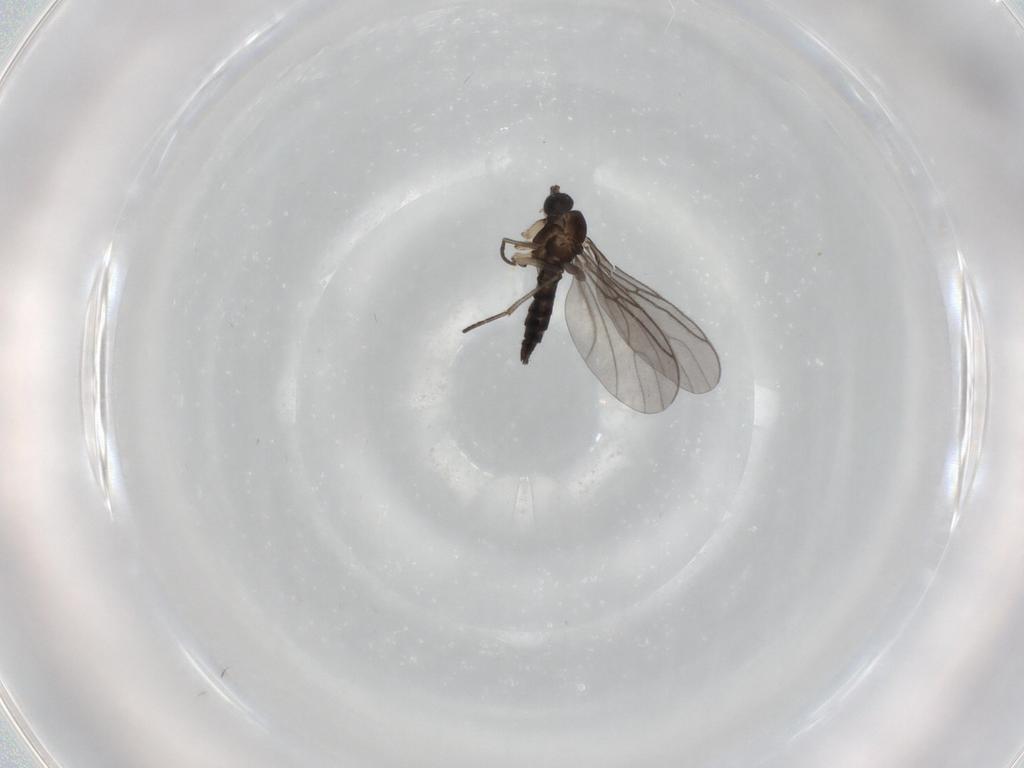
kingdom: Animalia
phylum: Arthropoda
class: Insecta
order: Diptera
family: Sciaridae
